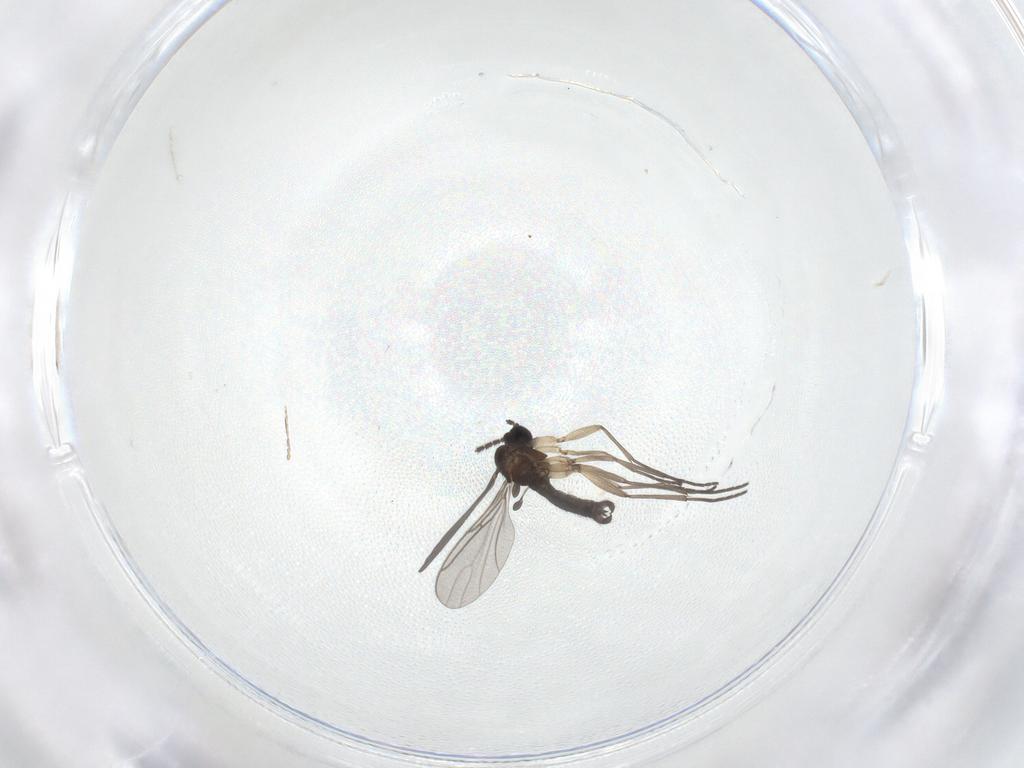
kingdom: Animalia
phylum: Arthropoda
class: Insecta
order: Diptera
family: Sciaridae
